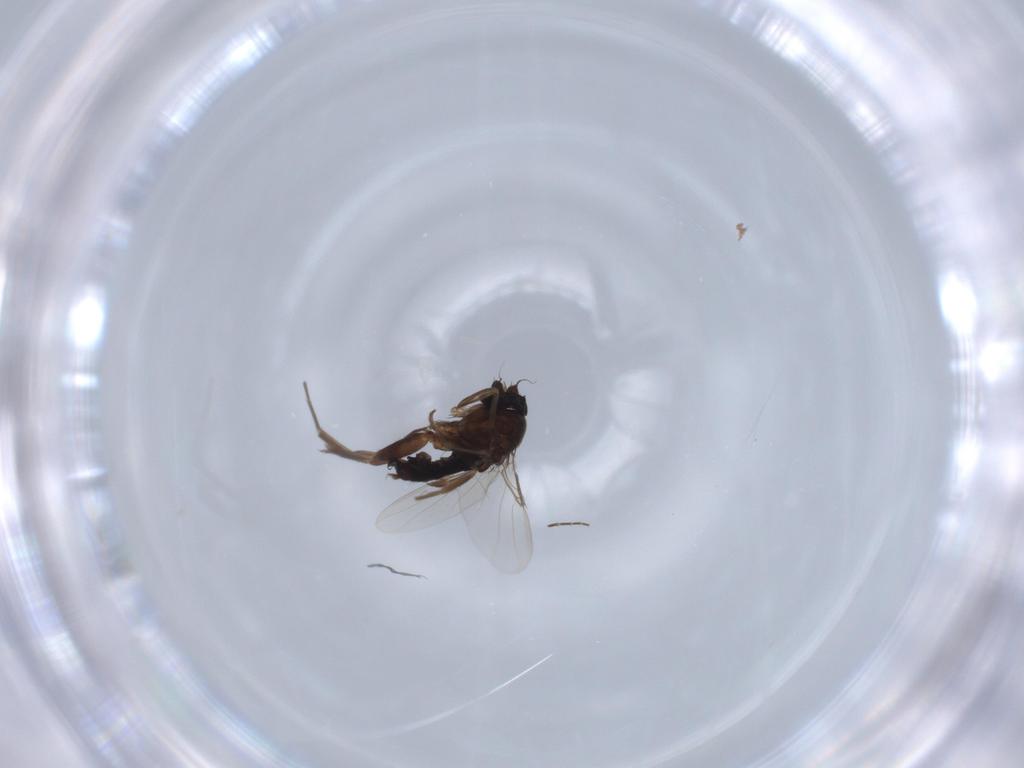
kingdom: Animalia
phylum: Arthropoda
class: Insecta
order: Diptera
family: Phoridae
